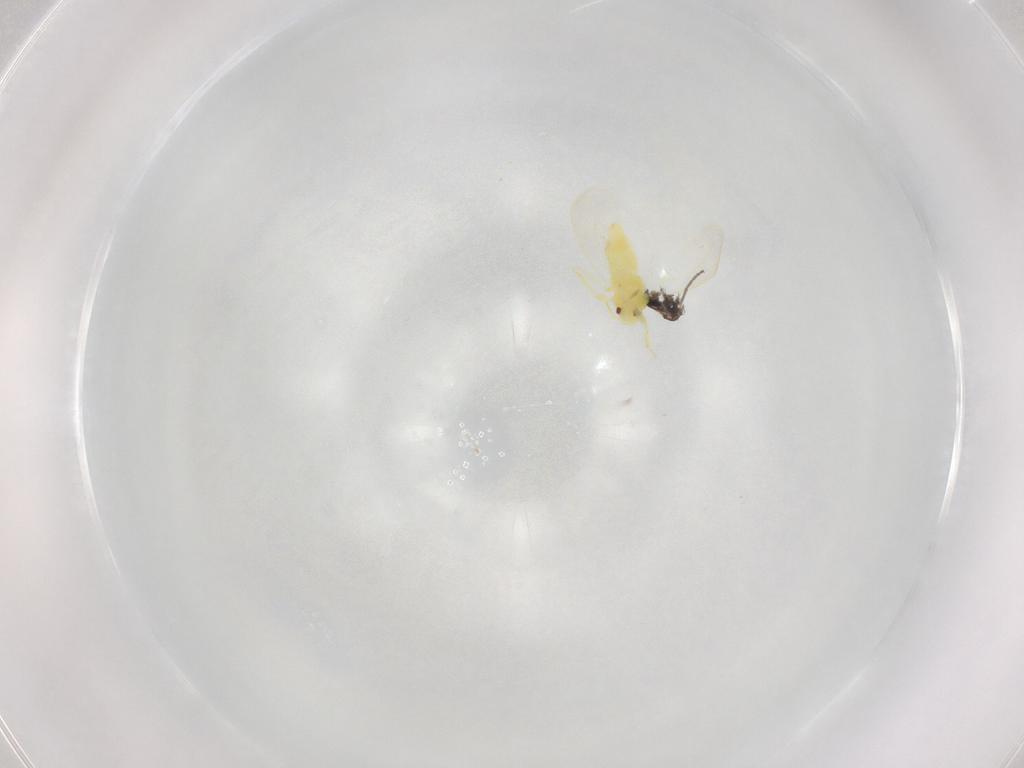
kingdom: Animalia
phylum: Arthropoda
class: Insecta
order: Hemiptera
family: Aleyrodidae
